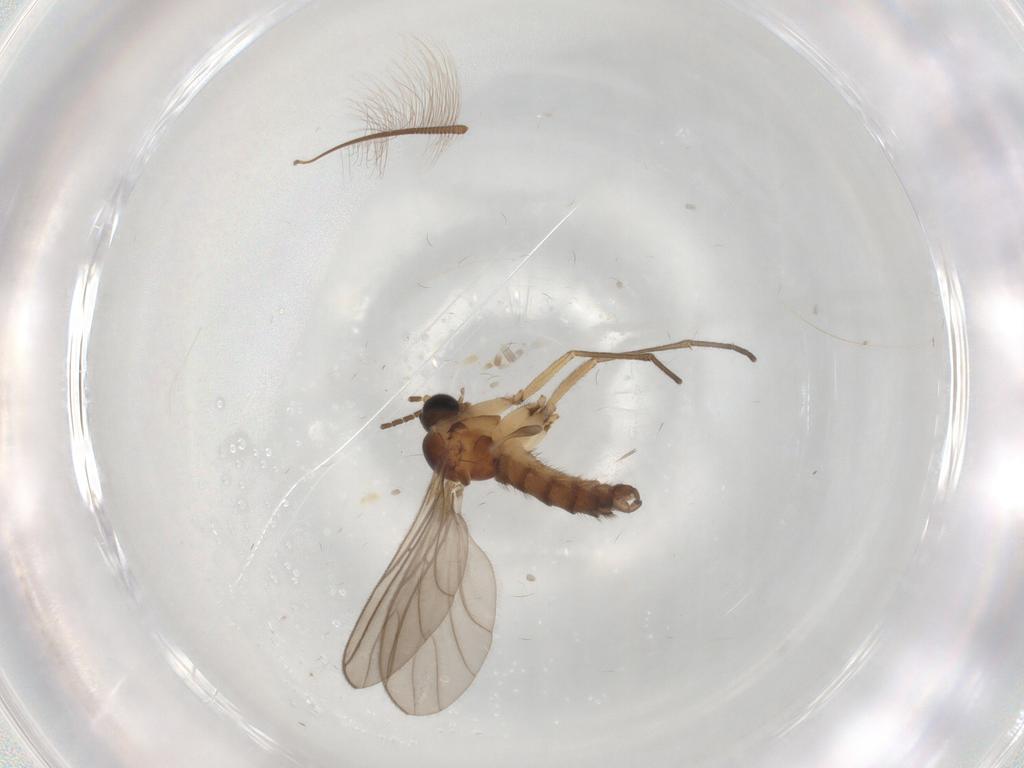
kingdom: Animalia
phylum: Arthropoda
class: Insecta
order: Diptera
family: Sciaridae
